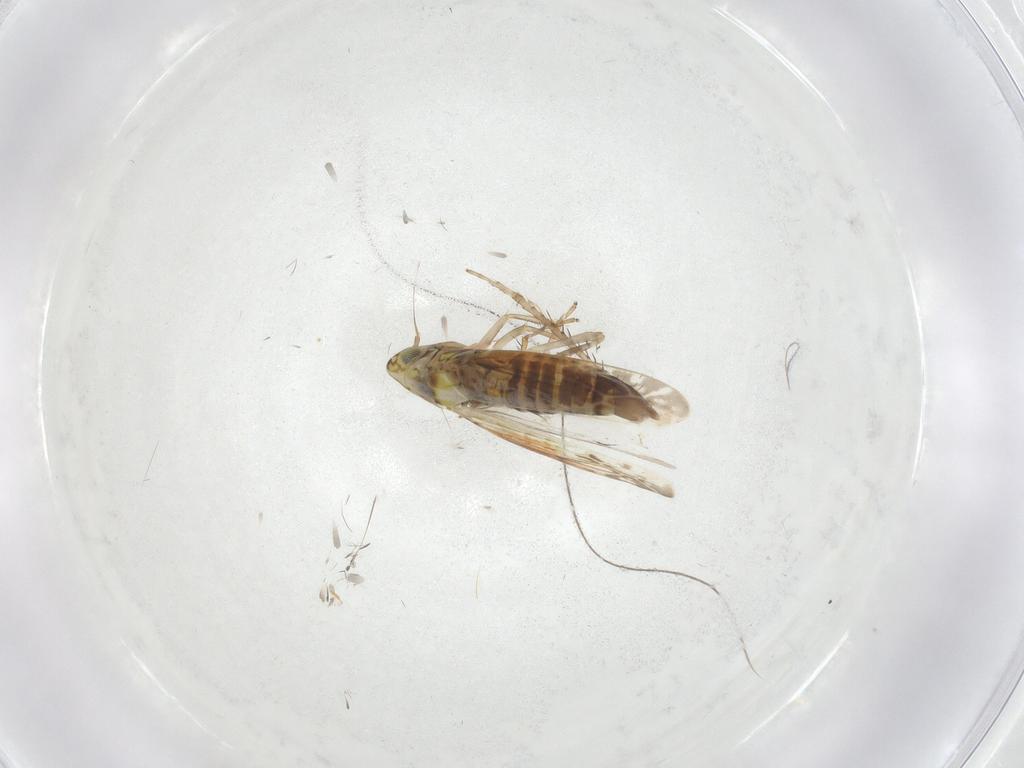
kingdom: Animalia
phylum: Arthropoda
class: Insecta
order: Hemiptera
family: Cicadellidae
